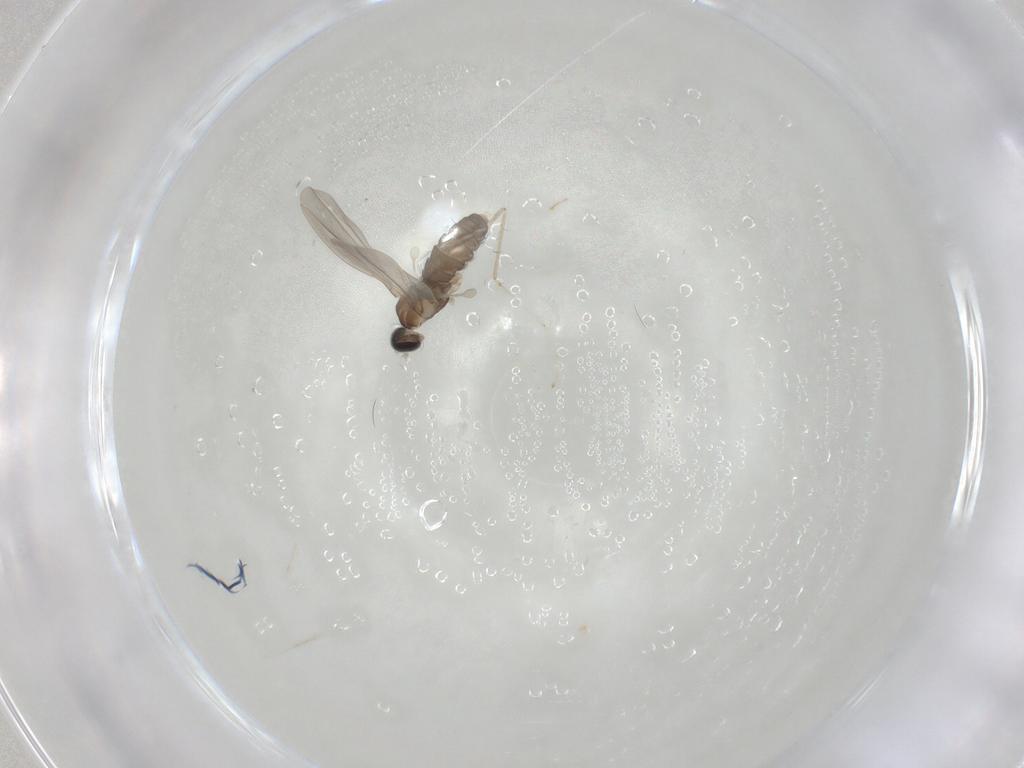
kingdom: Animalia
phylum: Arthropoda
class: Insecta
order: Diptera
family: Cecidomyiidae
